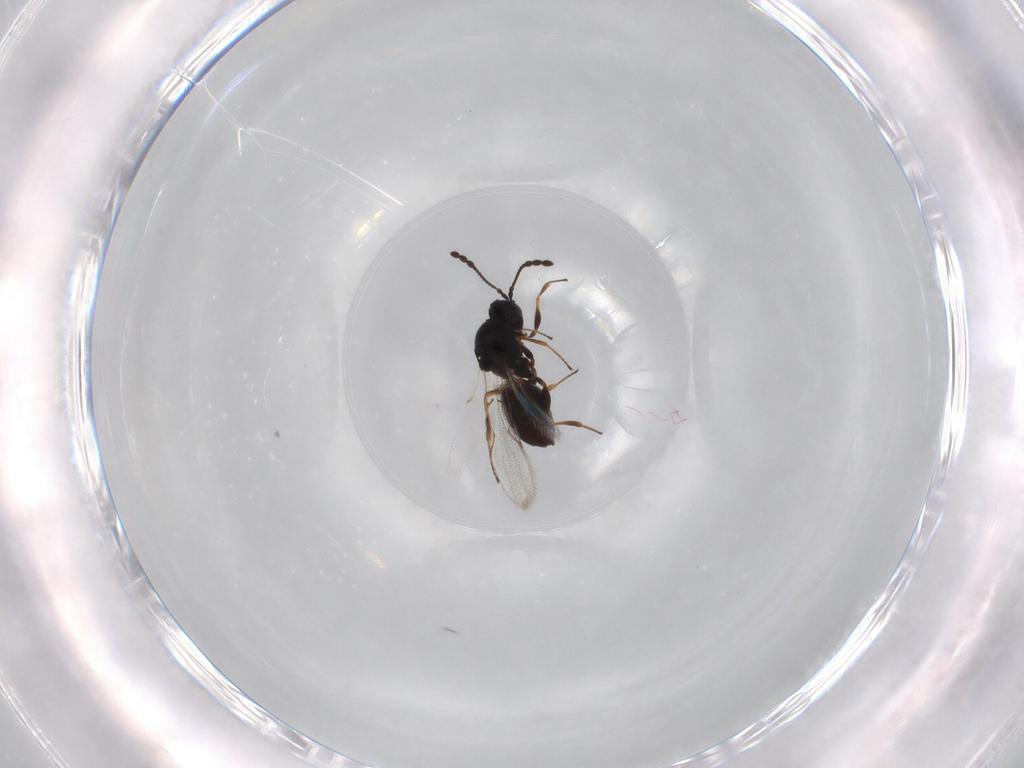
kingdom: Animalia
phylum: Arthropoda
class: Insecta
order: Hymenoptera
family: Figitidae
